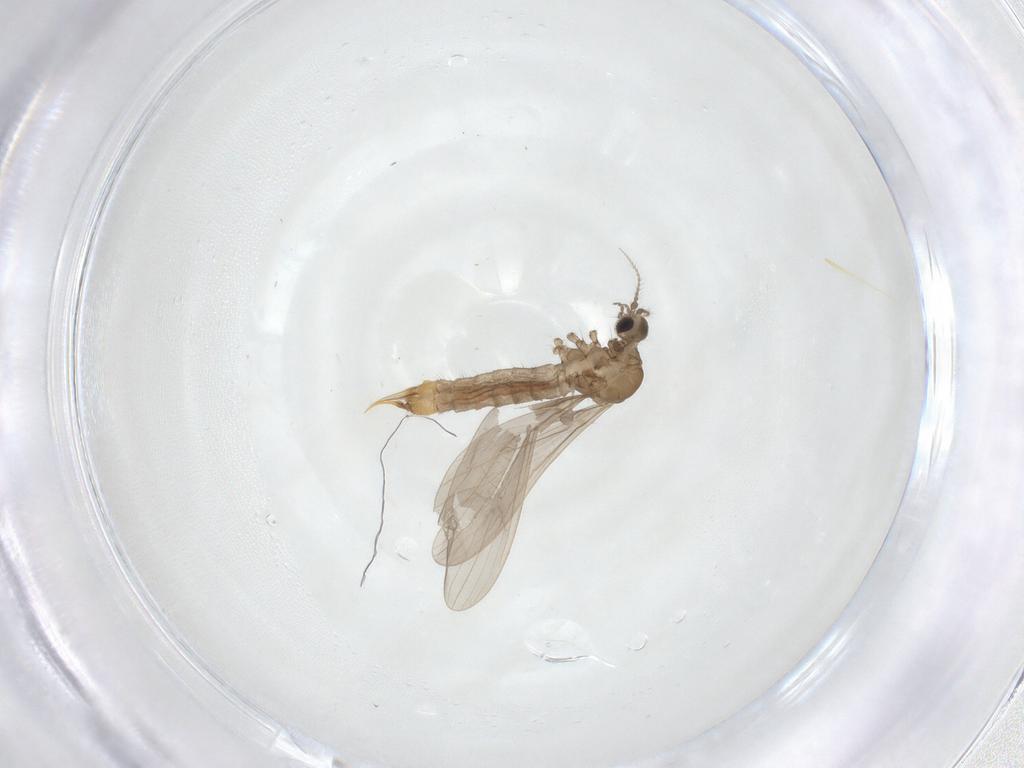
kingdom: Animalia
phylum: Arthropoda
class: Insecta
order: Diptera
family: Limoniidae
